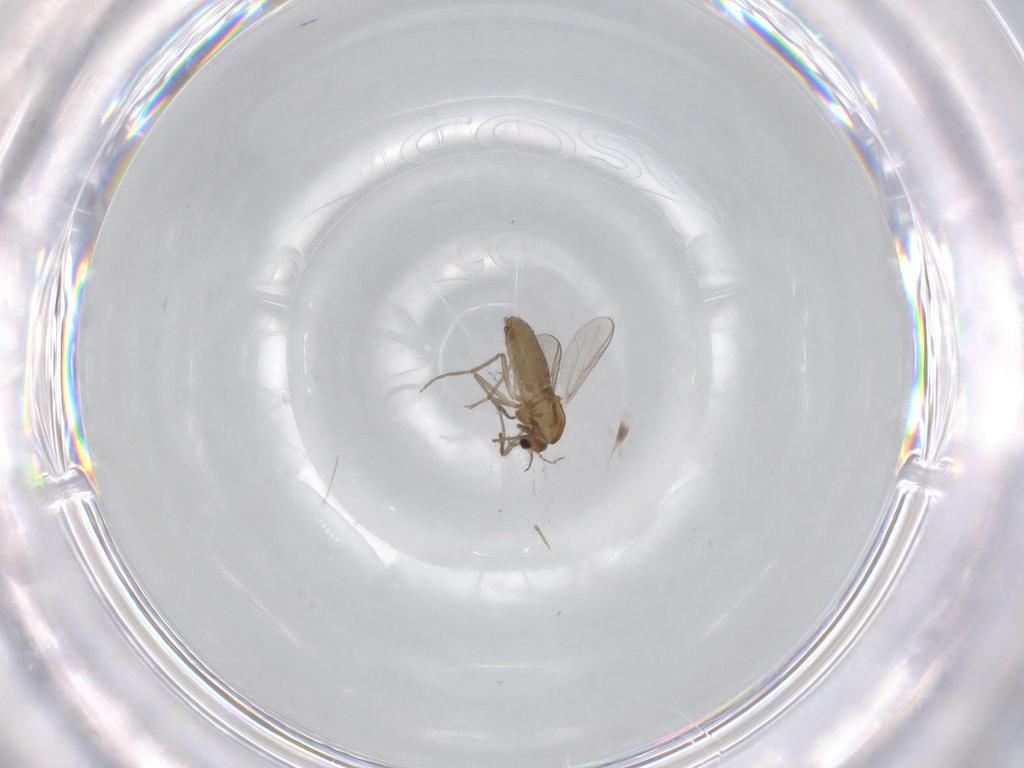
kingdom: Animalia
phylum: Arthropoda
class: Insecta
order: Diptera
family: Chironomidae
